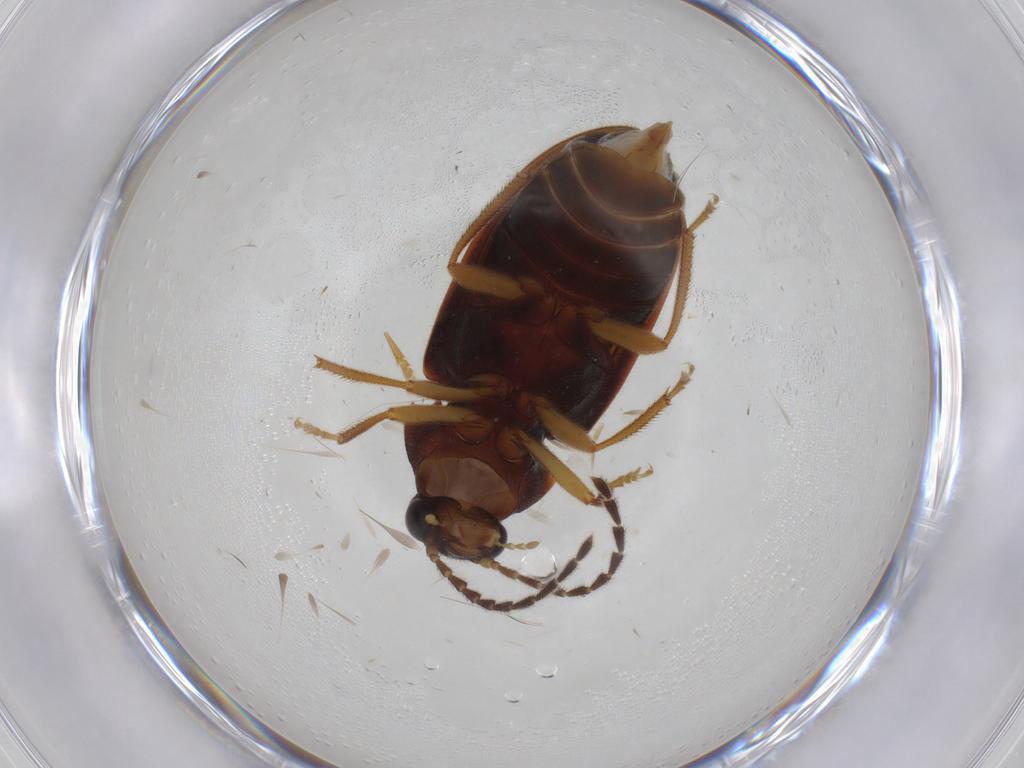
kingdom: Animalia
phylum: Arthropoda
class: Insecta
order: Coleoptera
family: Ptilodactylidae
